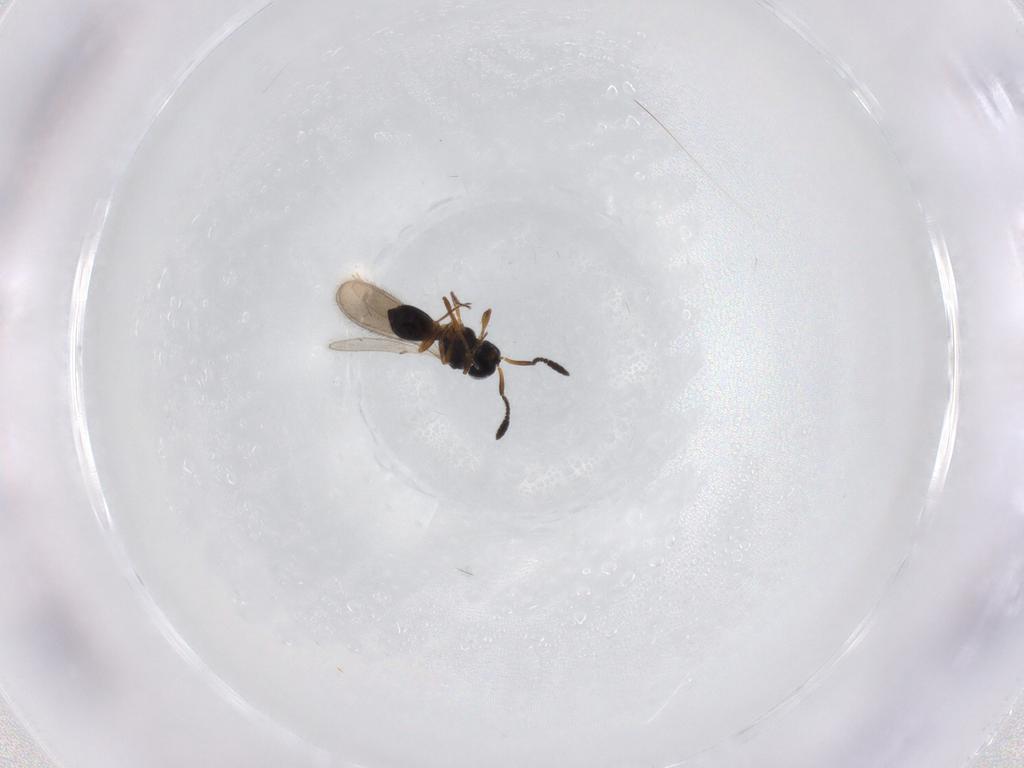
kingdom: Animalia
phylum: Arthropoda
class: Insecta
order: Hymenoptera
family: Scelionidae
